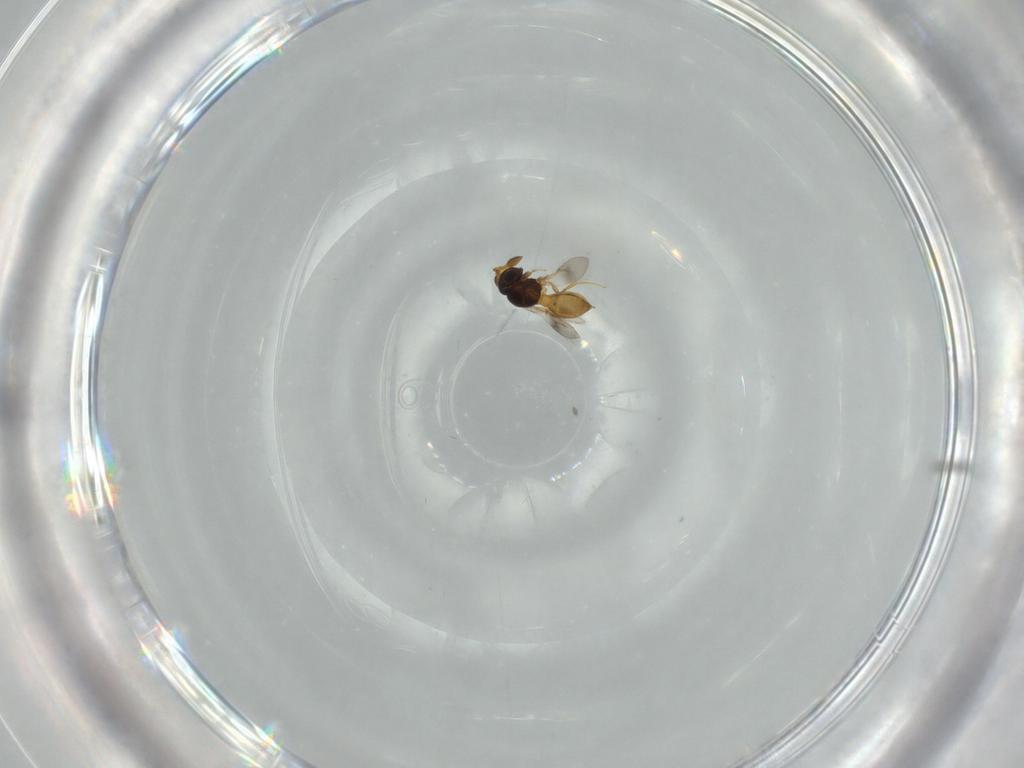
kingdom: Animalia
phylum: Arthropoda
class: Insecta
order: Hymenoptera
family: Scelionidae
